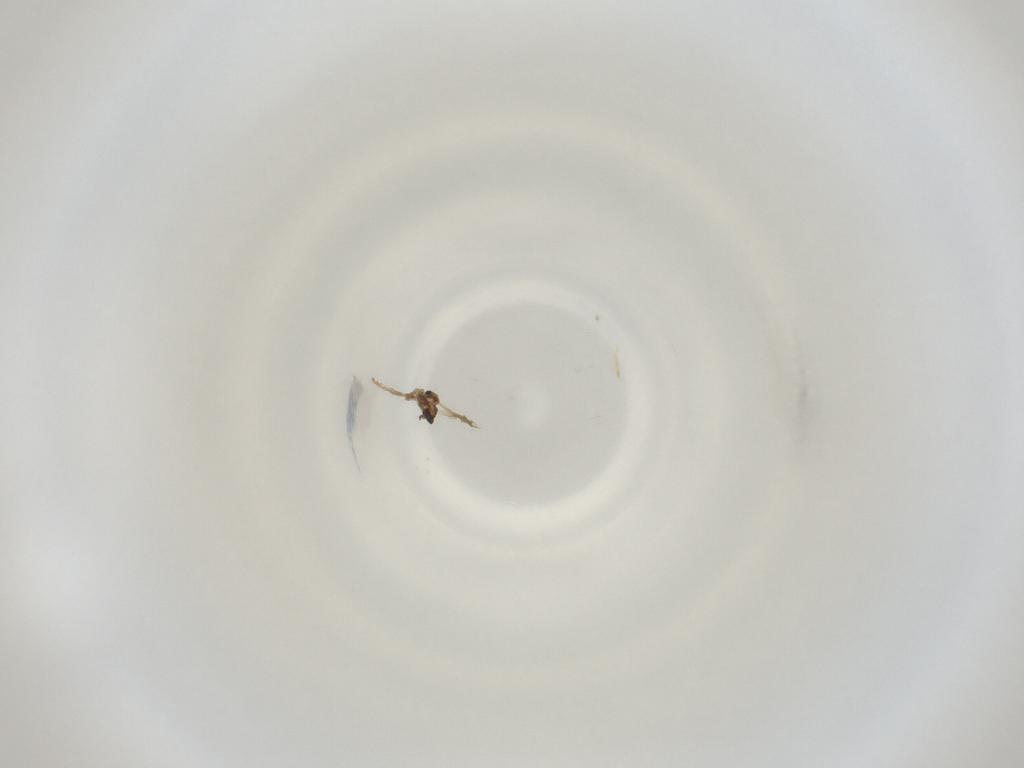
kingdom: Animalia
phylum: Arthropoda
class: Insecta
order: Diptera
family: Cecidomyiidae
